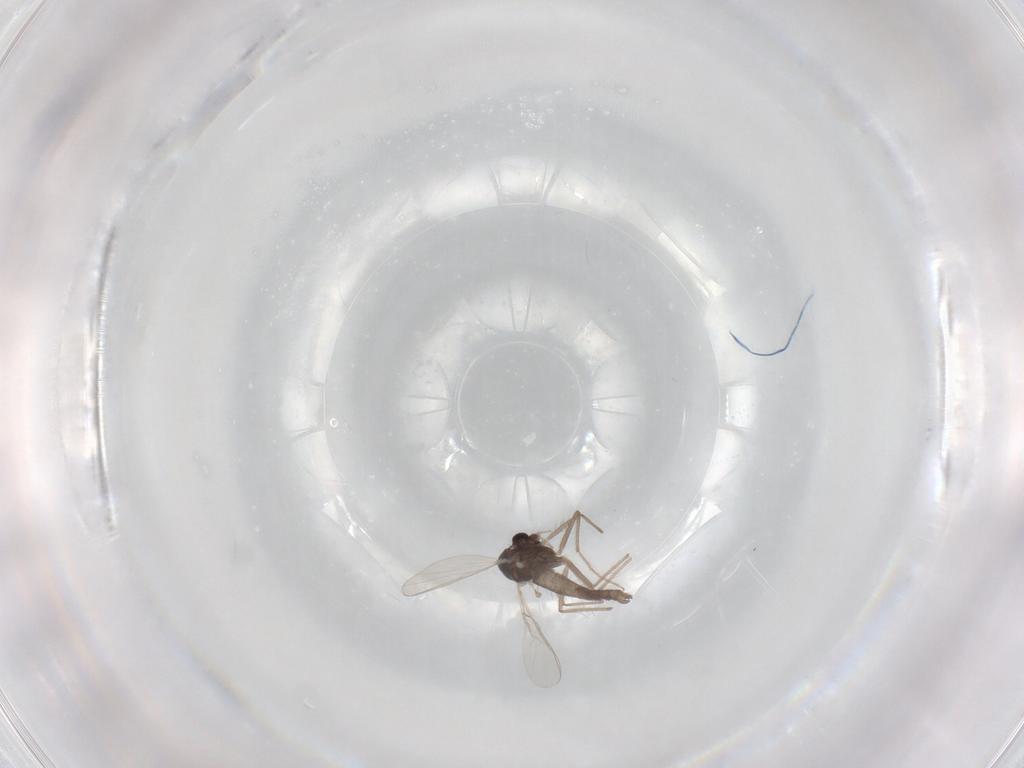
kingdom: Animalia
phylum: Arthropoda
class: Insecta
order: Diptera
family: Chironomidae
